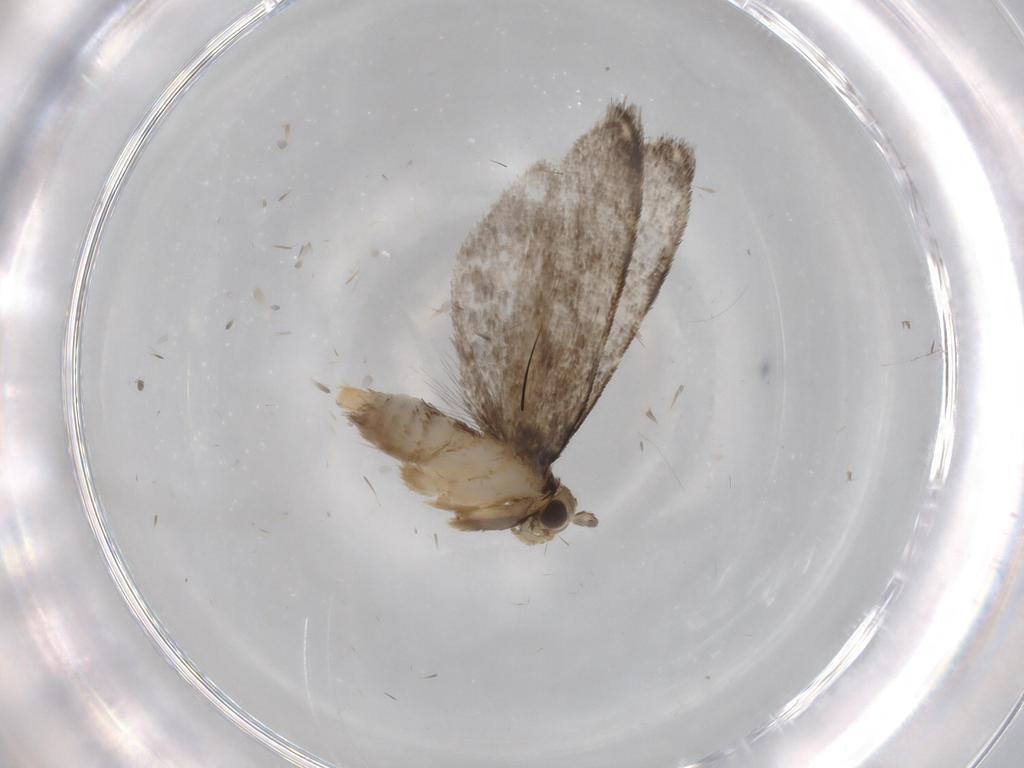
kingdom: Animalia
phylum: Arthropoda
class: Insecta
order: Lepidoptera
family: Dryadaulidae
